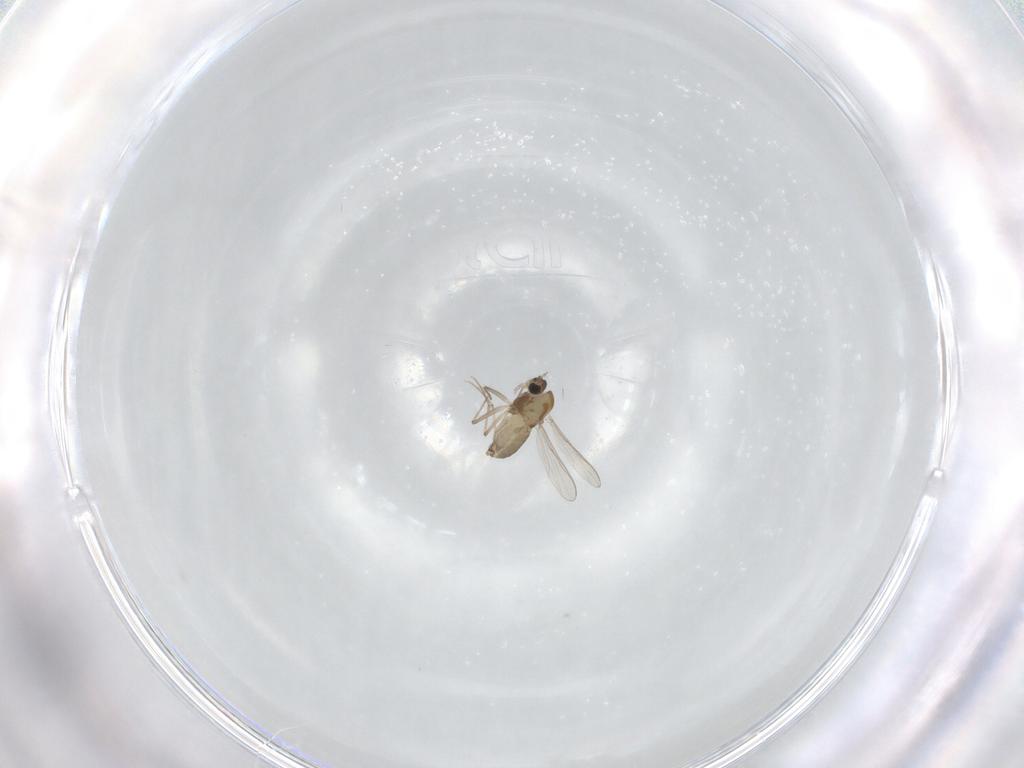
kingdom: Animalia
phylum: Arthropoda
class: Insecta
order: Diptera
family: Chironomidae
